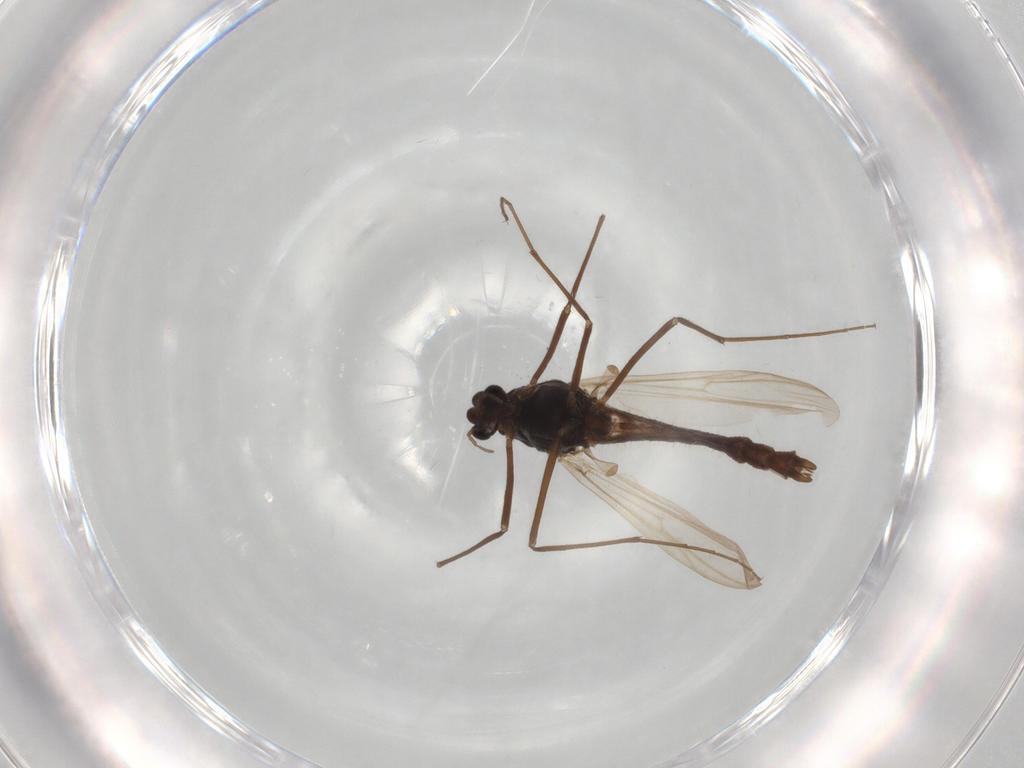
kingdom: Animalia
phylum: Arthropoda
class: Insecta
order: Diptera
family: Chironomidae
